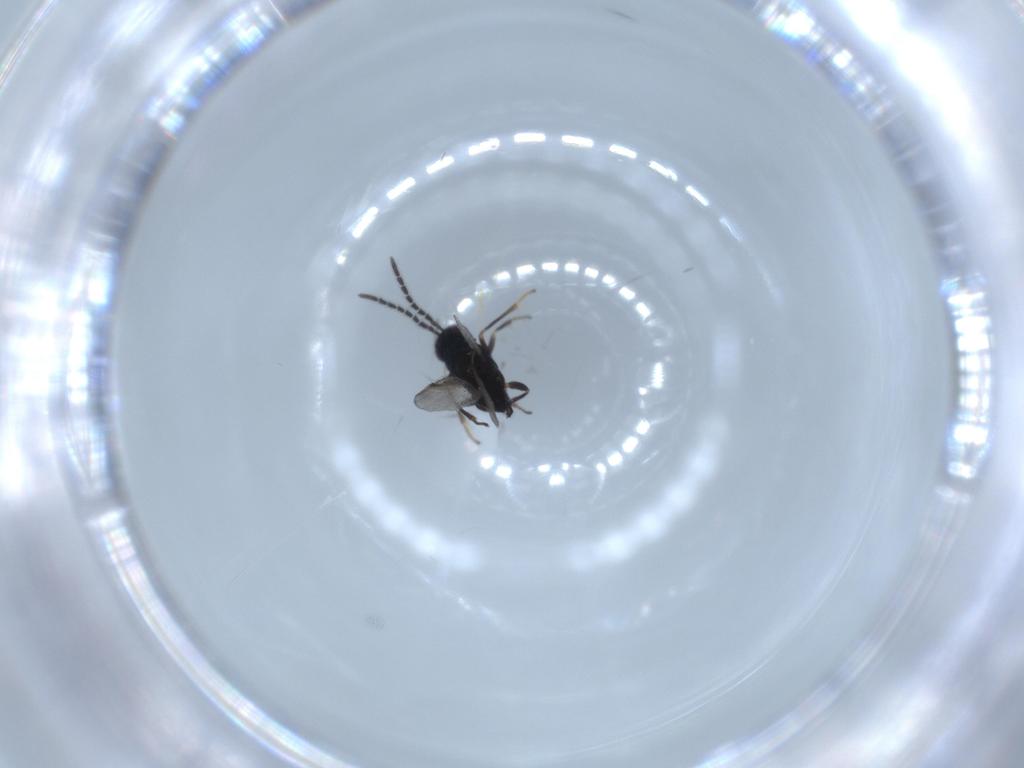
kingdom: Animalia
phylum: Arthropoda
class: Insecta
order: Hymenoptera
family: Encyrtidae
